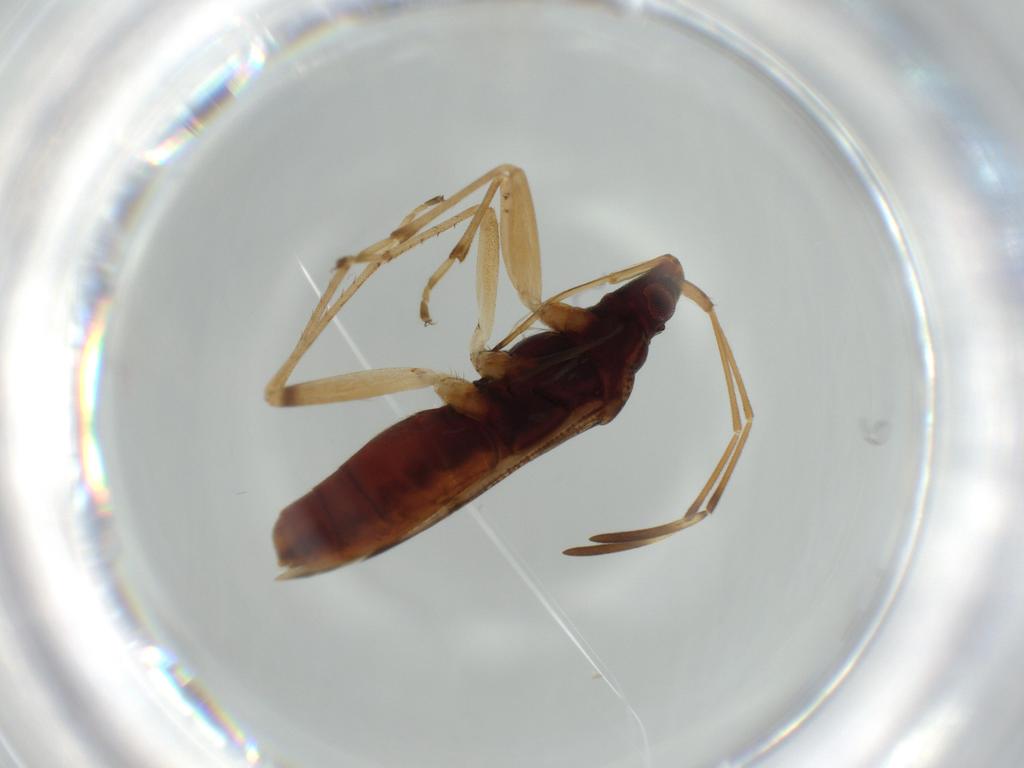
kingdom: Animalia
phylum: Arthropoda
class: Insecta
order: Hemiptera
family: Rhyparochromidae
